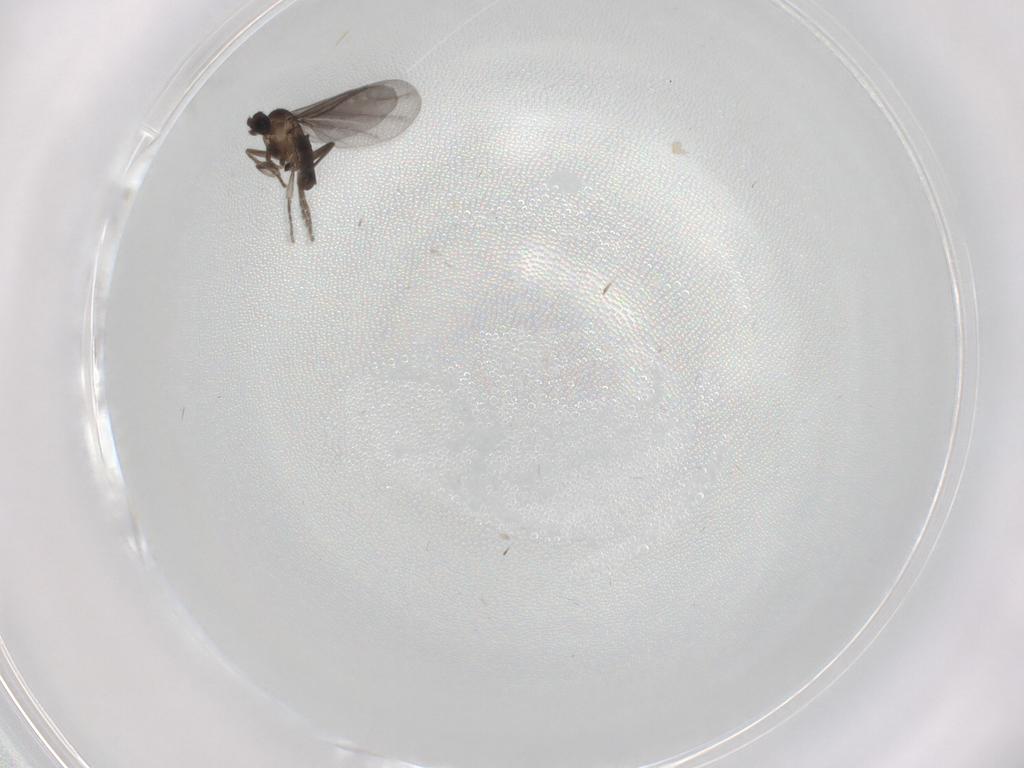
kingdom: Animalia
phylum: Arthropoda
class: Insecta
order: Diptera
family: Phoridae
